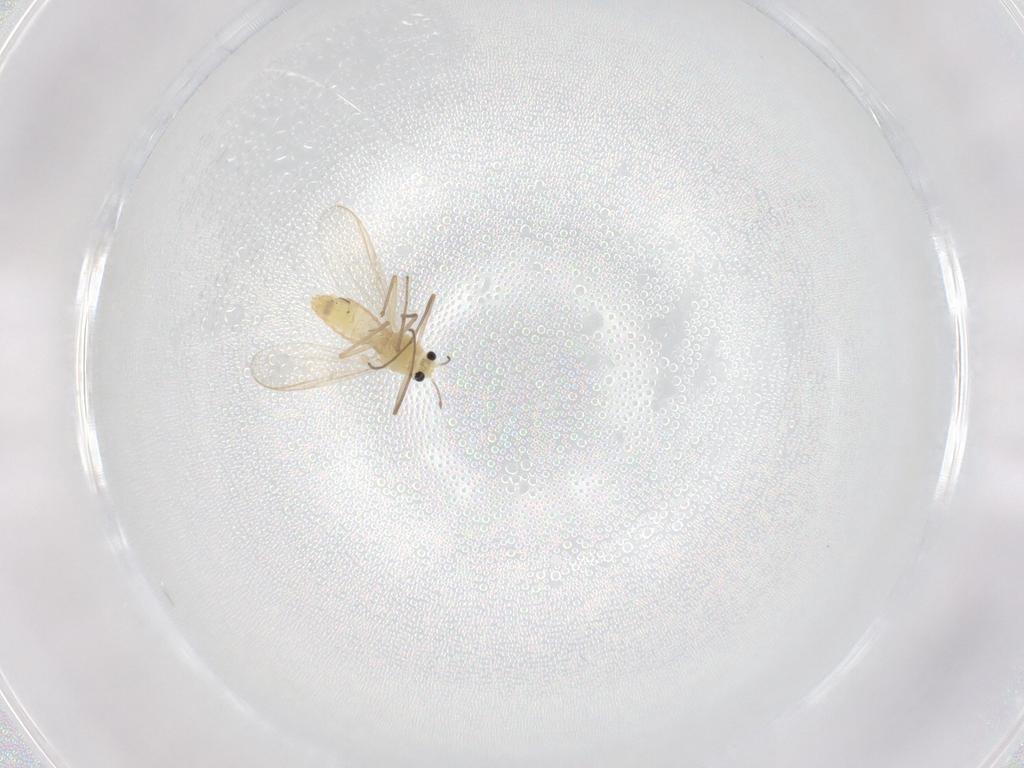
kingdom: Animalia
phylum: Arthropoda
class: Insecta
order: Diptera
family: Chironomidae
